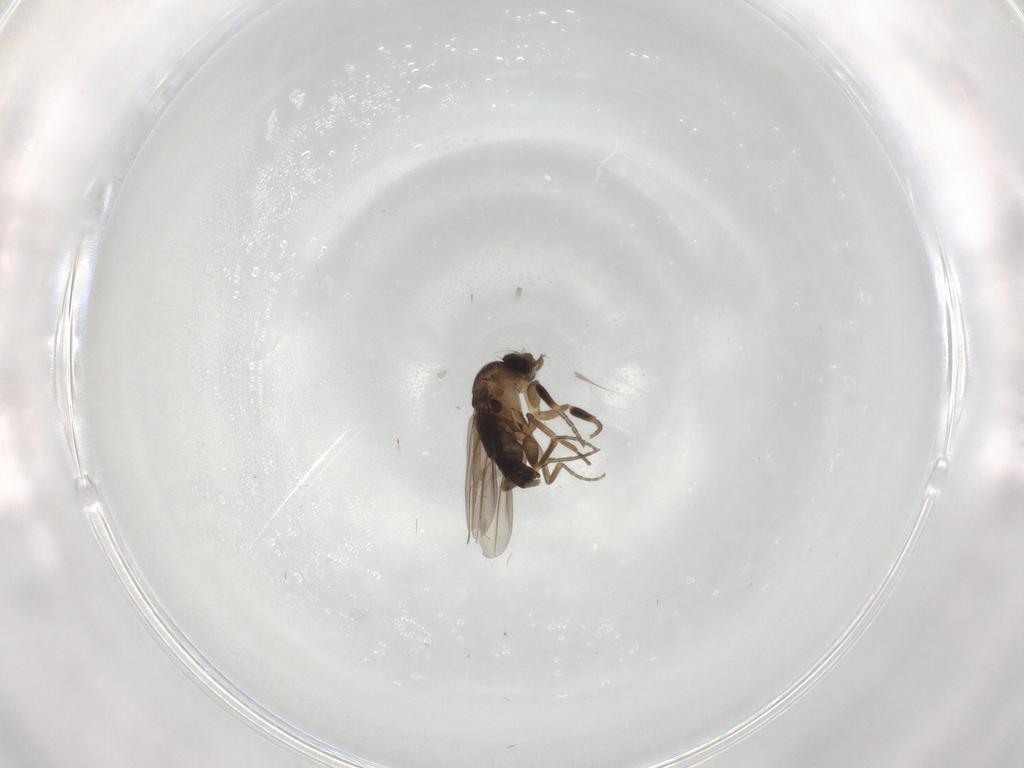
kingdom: Animalia
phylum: Arthropoda
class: Insecta
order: Diptera
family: Phoridae
